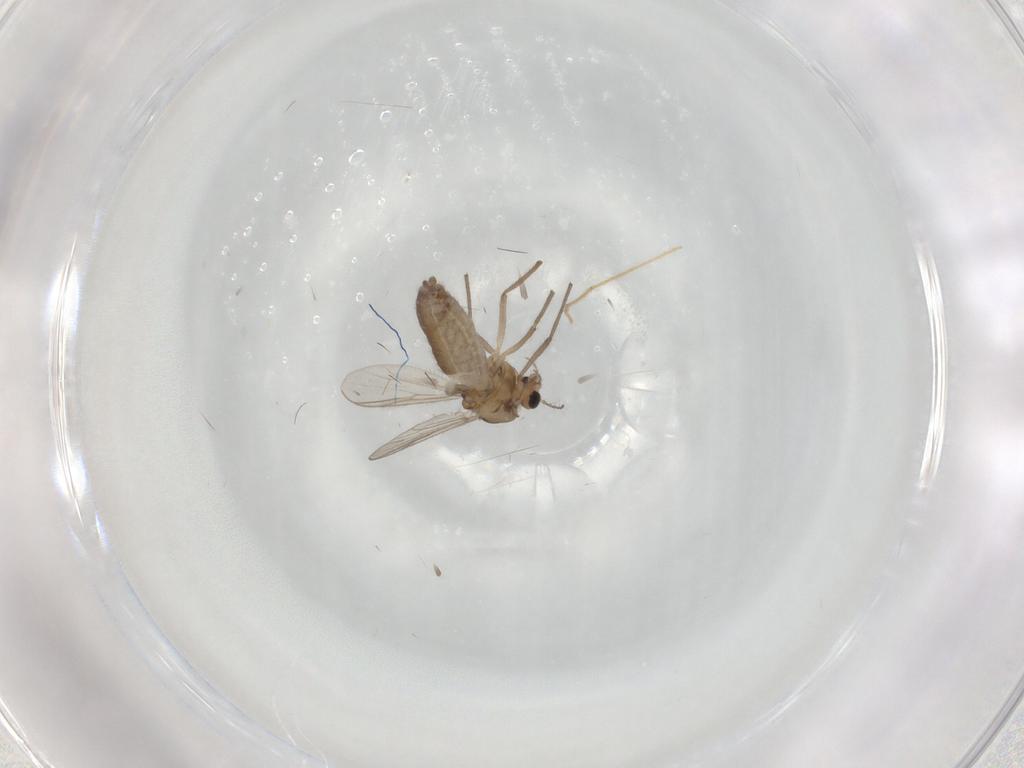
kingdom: Animalia
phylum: Arthropoda
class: Insecta
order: Diptera
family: Chironomidae
